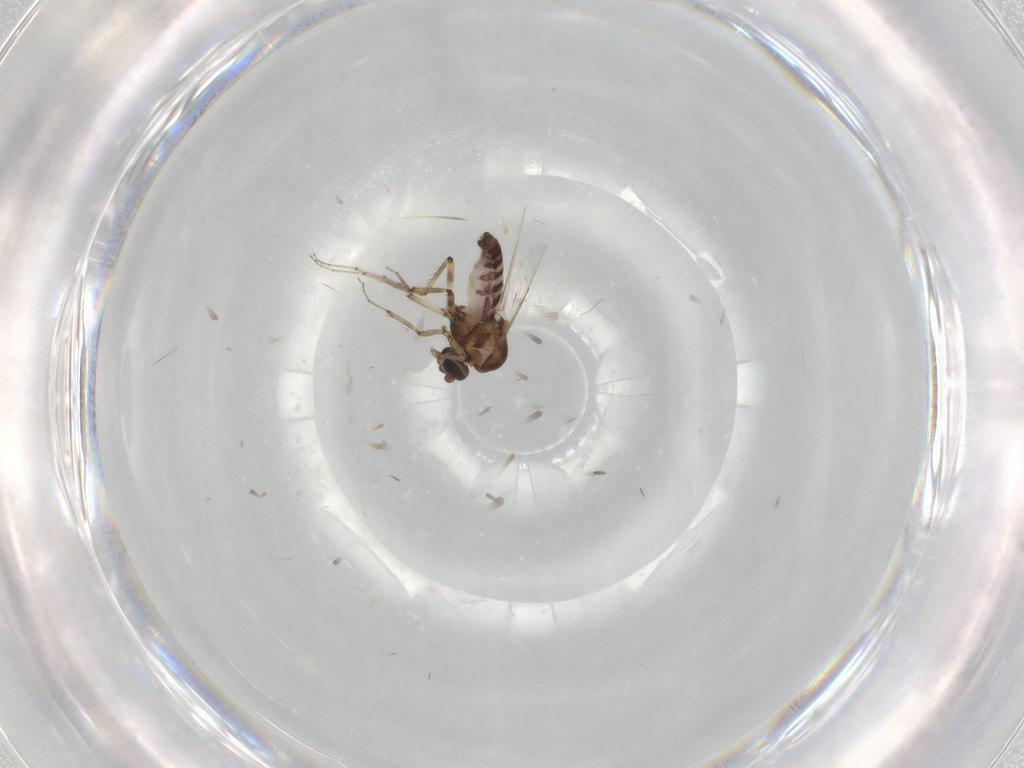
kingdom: Animalia
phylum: Arthropoda
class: Insecta
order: Diptera
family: Ceratopogonidae
